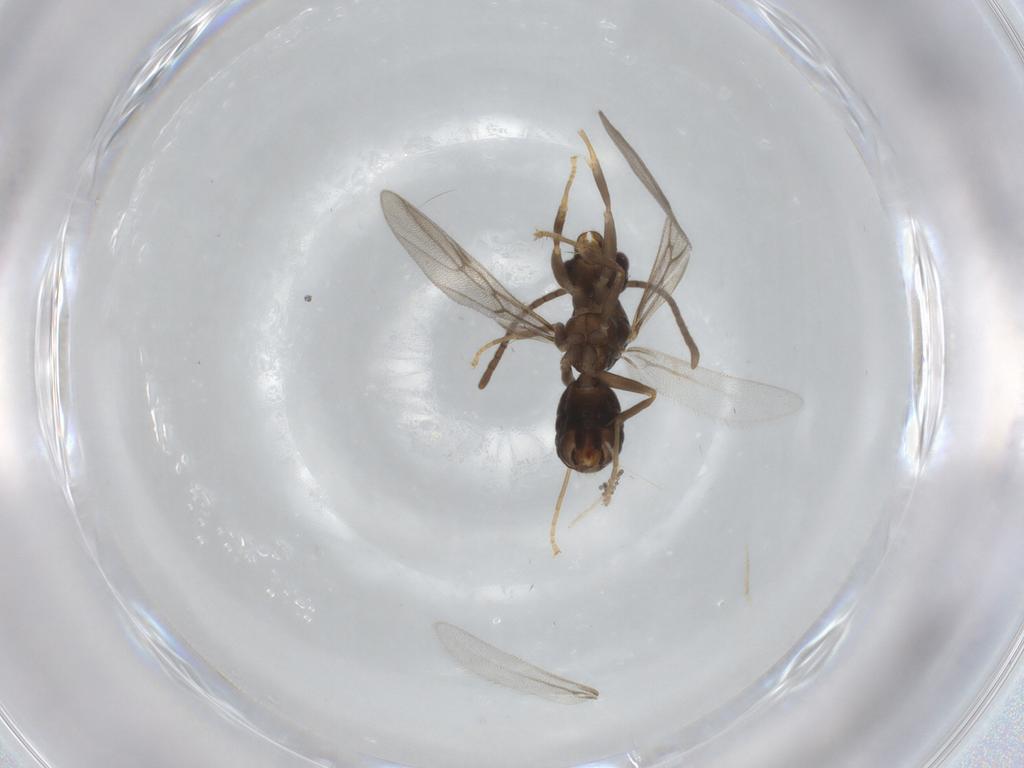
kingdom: Animalia
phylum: Arthropoda
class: Insecta
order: Hymenoptera
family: Formicidae
